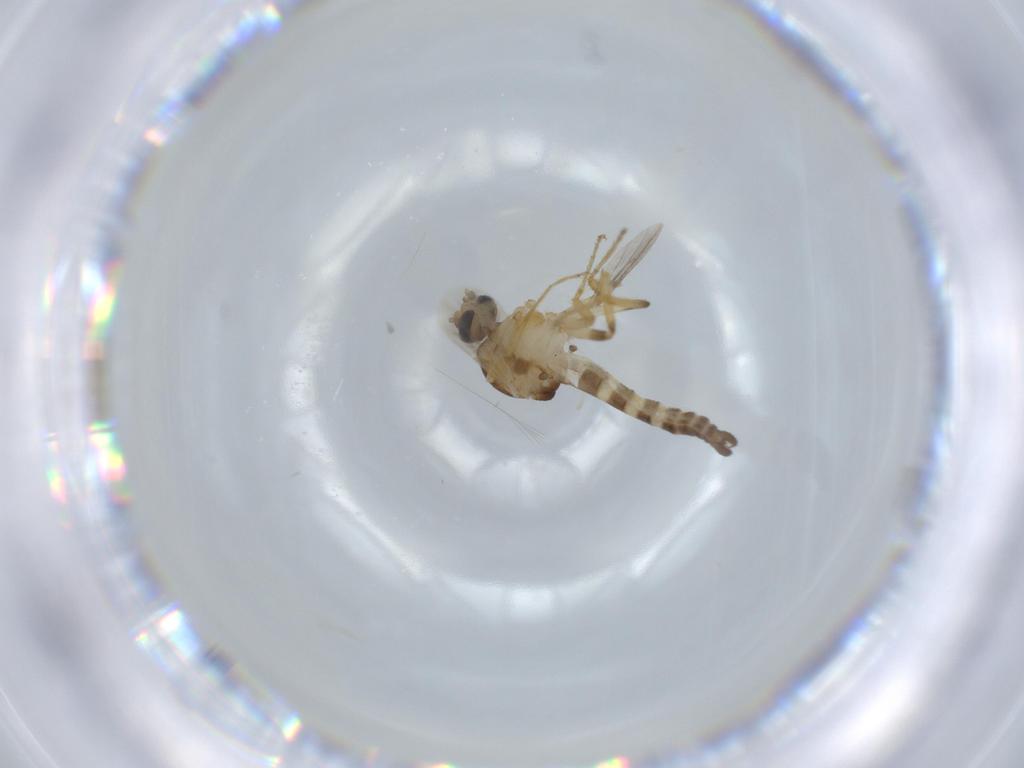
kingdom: Animalia
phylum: Arthropoda
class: Insecta
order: Diptera
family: Ceratopogonidae
